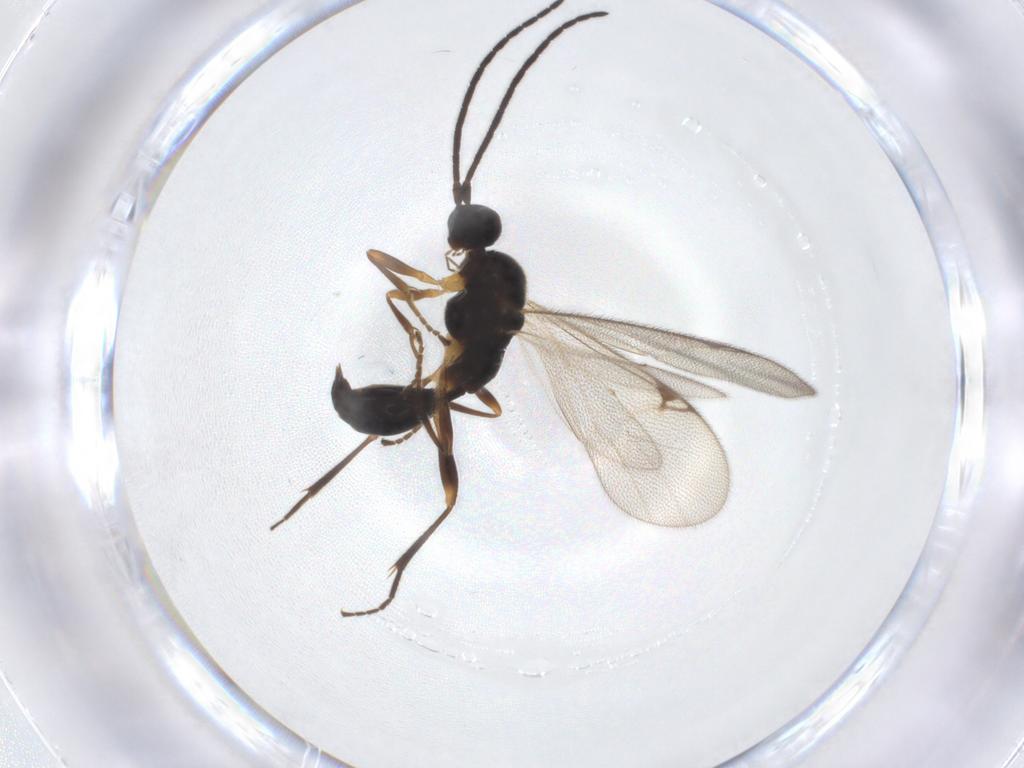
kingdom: Animalia
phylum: Arthropoda
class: Insecta
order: Hymenoptera
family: Proctotrupidae
